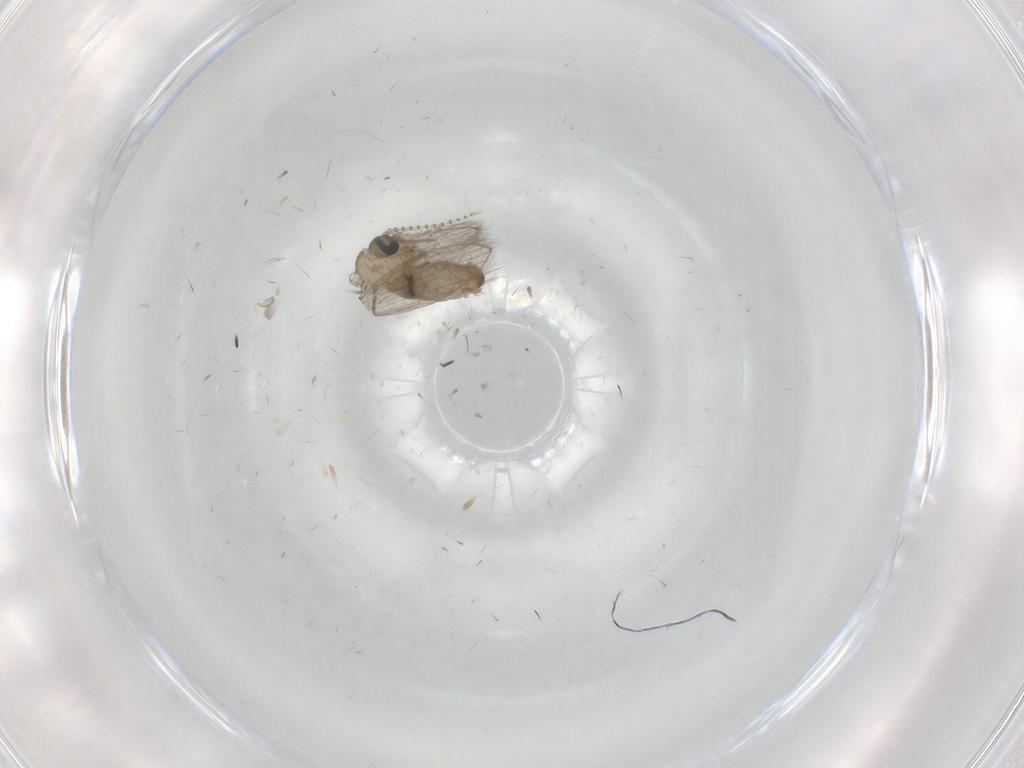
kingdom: Animalia
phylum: Arthropoda
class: Insecta
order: Diptera
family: Psychodidae
